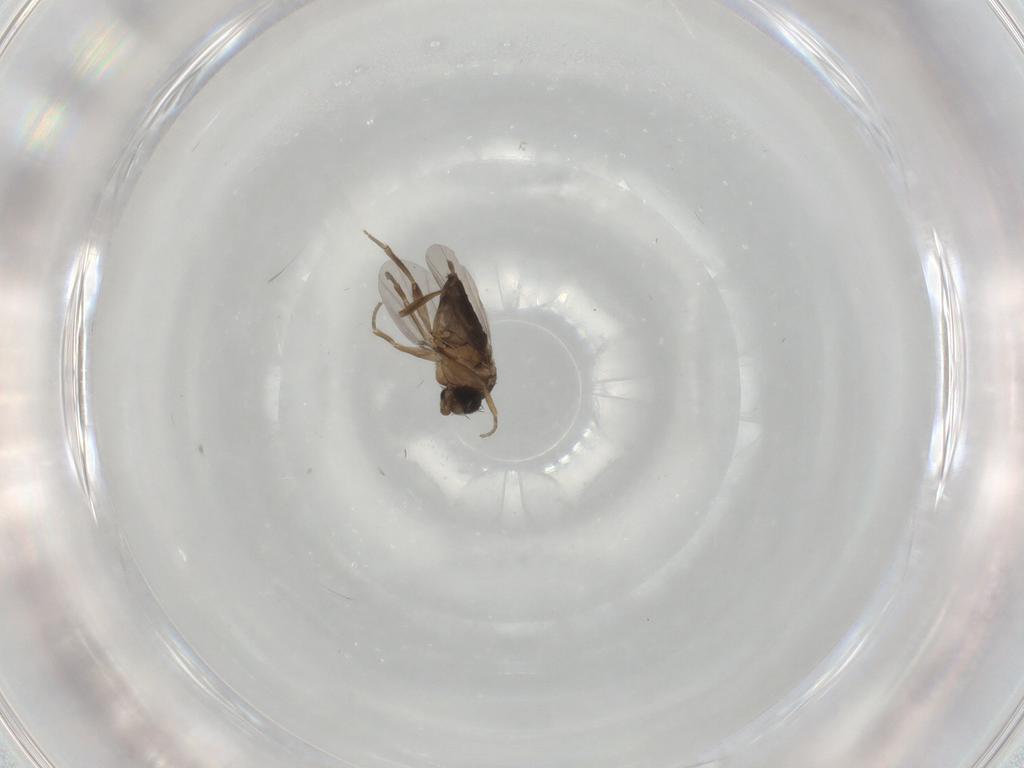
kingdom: Animalia
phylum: Arthropoda
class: Insecta
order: Diptera
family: Phoridae
